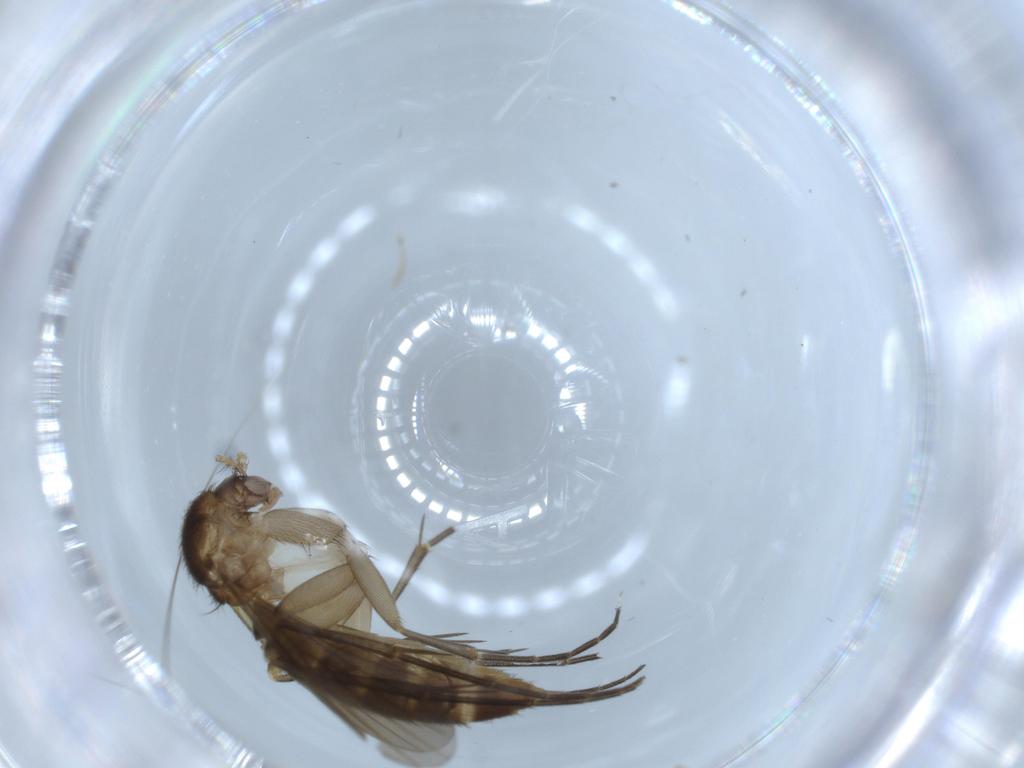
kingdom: Animalia
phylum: Arthropoda
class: Insecta
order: Diptera
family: Mycetophilidae
